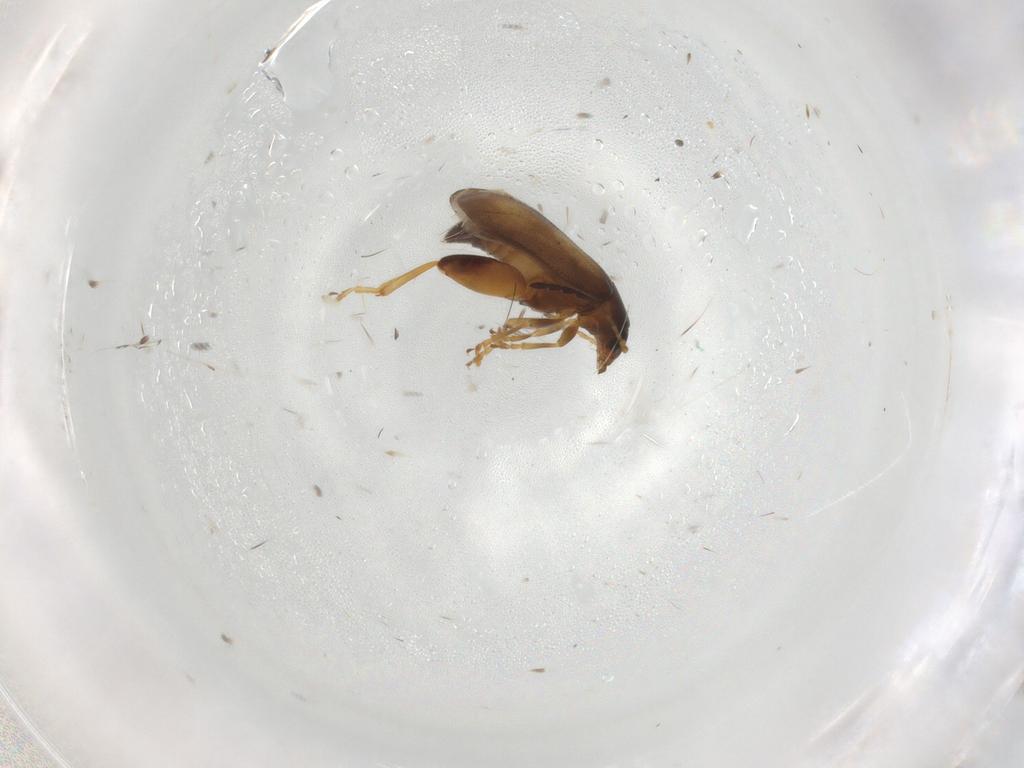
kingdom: Animalia
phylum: Arthropoda
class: Insecta
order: Coleoptera
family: Chrysomelidae
